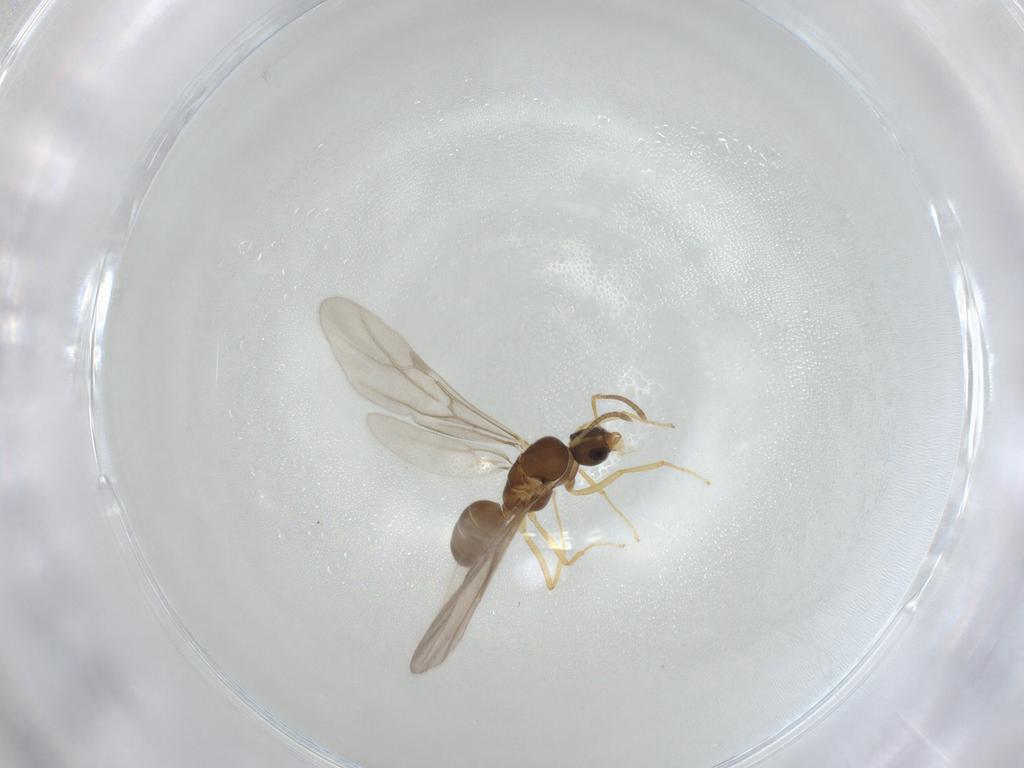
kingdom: Animalia
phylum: Arthropoda
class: Insecta
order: Hymenoptera
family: Formicidae
